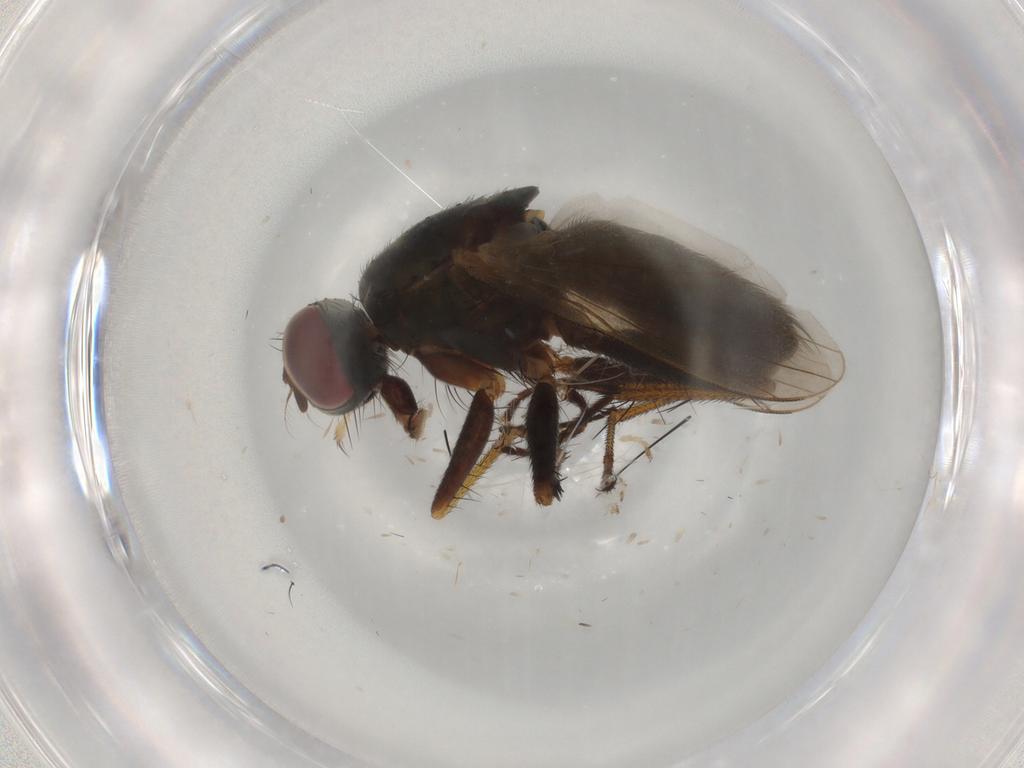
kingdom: Animalia
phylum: Arthropoda
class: Insecta
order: Diptera
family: Muscidae
